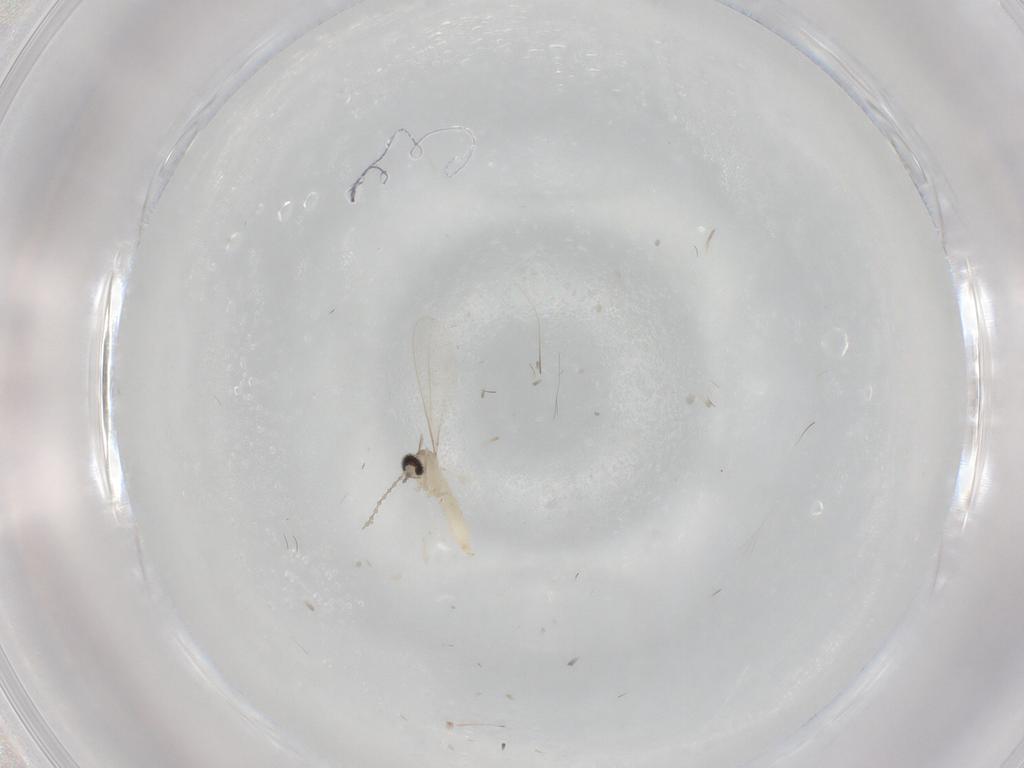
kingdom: Animalia
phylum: Arthropoda
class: Insecta
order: Diptera
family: Cecidomyiidae
